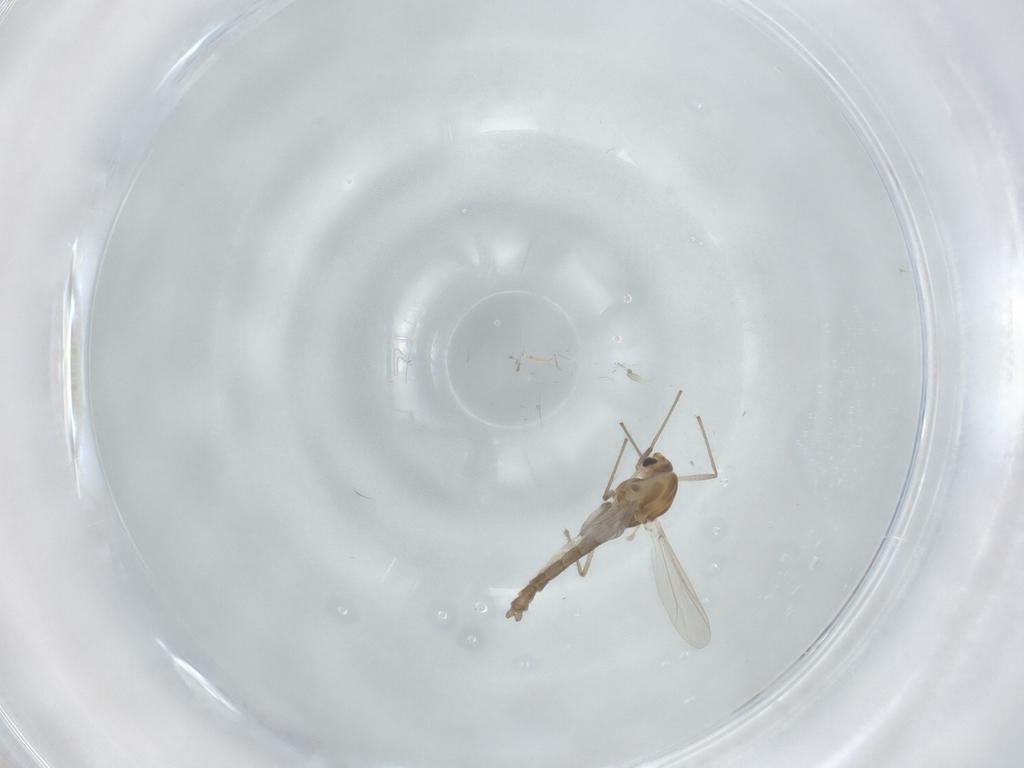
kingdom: Animalia
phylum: Arthropoda
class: Insecta
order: Diptera
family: Chironomidae
